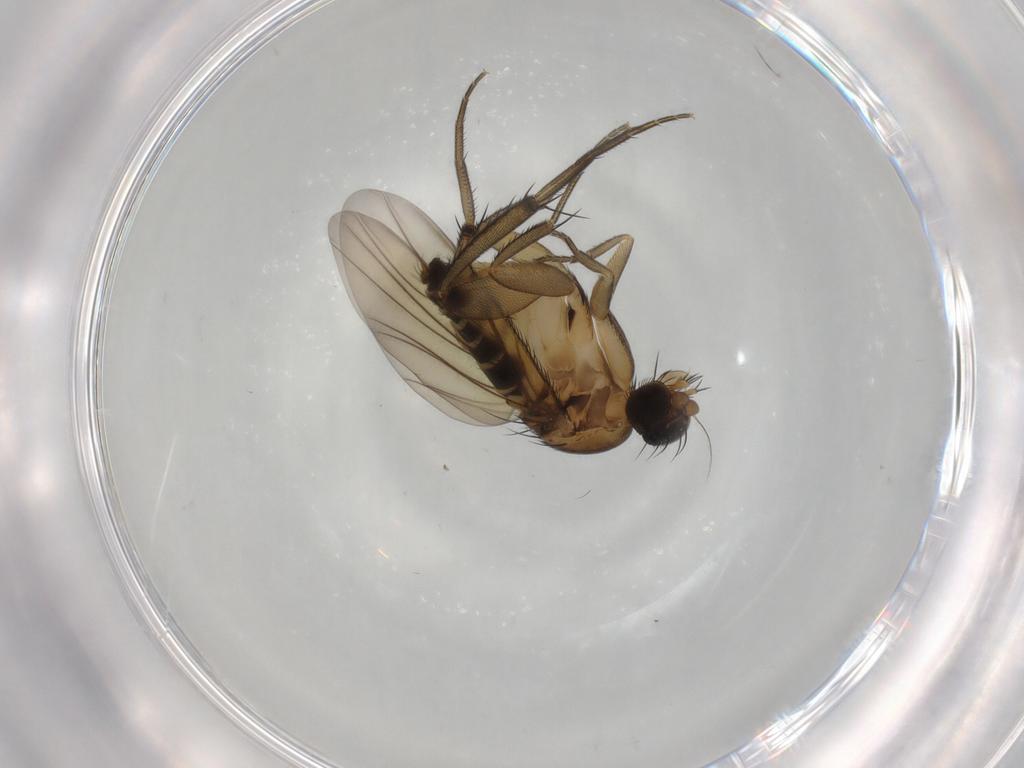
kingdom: Animalia
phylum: Arthropoda
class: Insecta
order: Diptera
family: Phoridae
